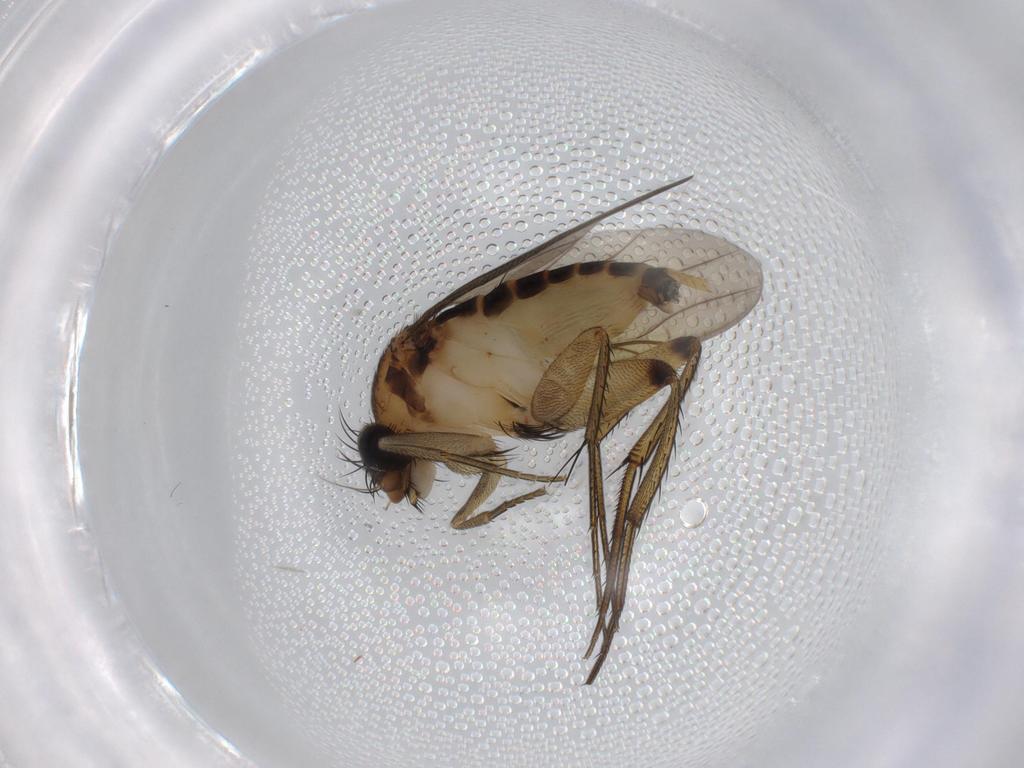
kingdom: Animalia
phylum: Arthropoda
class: Insecta
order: Diptera
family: Phoridae
